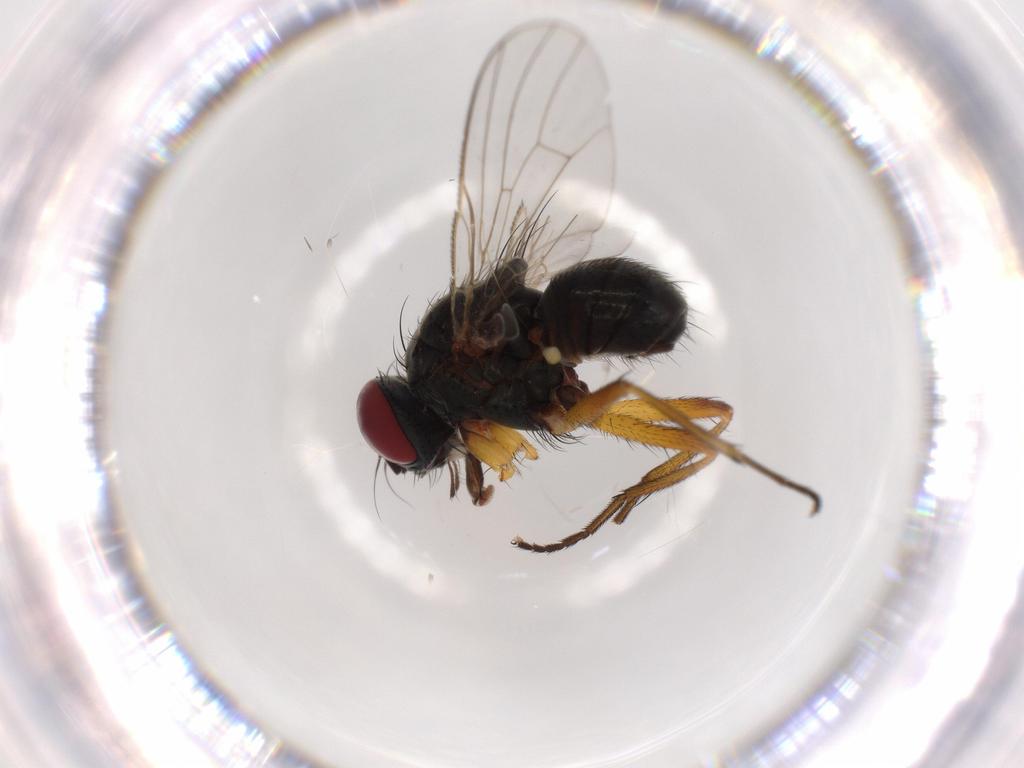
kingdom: Animalia
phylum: Arthropoda
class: Insecta
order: Diptera
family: Muscidae
